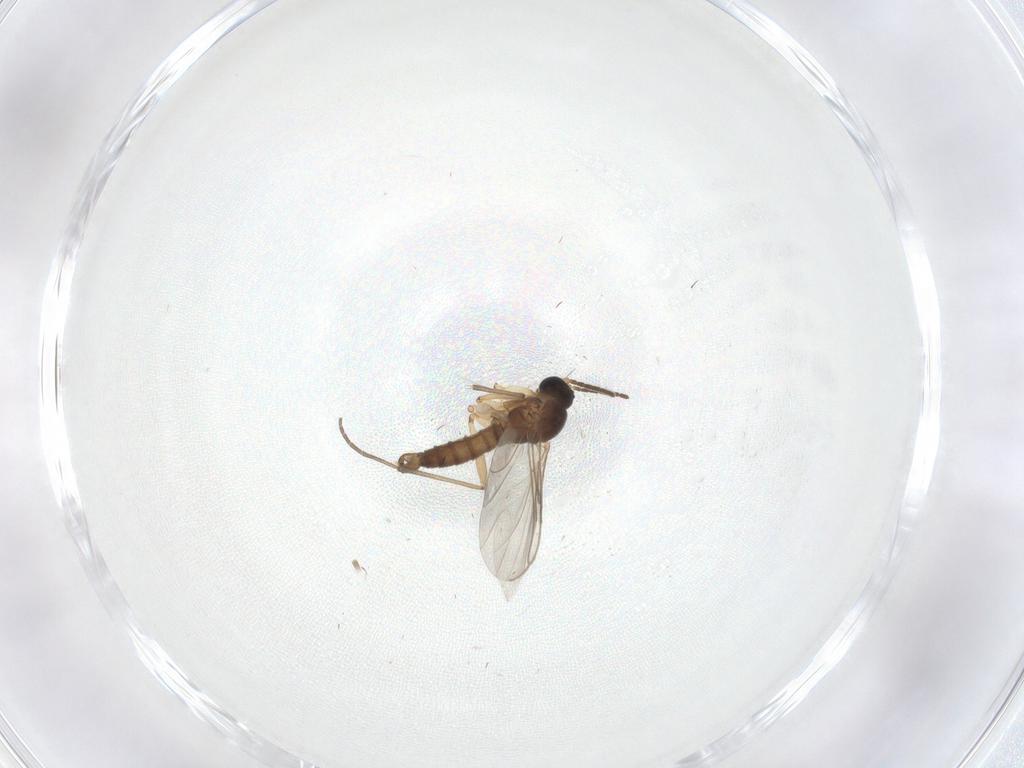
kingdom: Animalia
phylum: Arthropoda
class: Insecta
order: Diptera
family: Sciaridae
